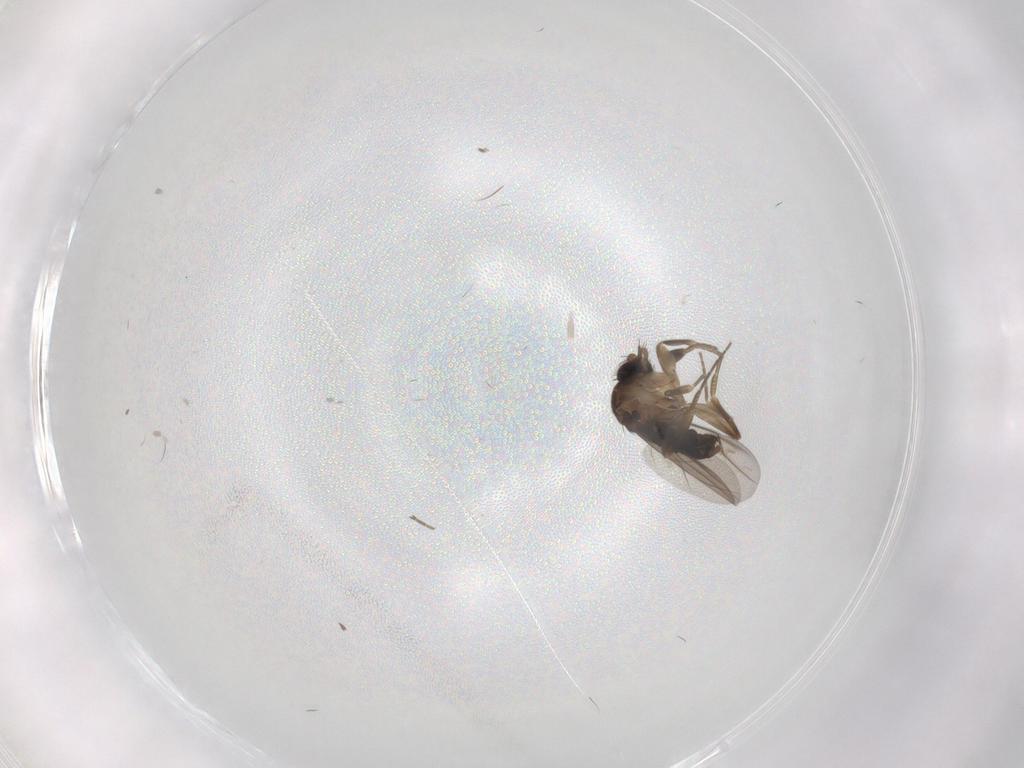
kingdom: Animalia
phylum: Arthropoda
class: Insecta
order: Diptera
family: Phoridae
